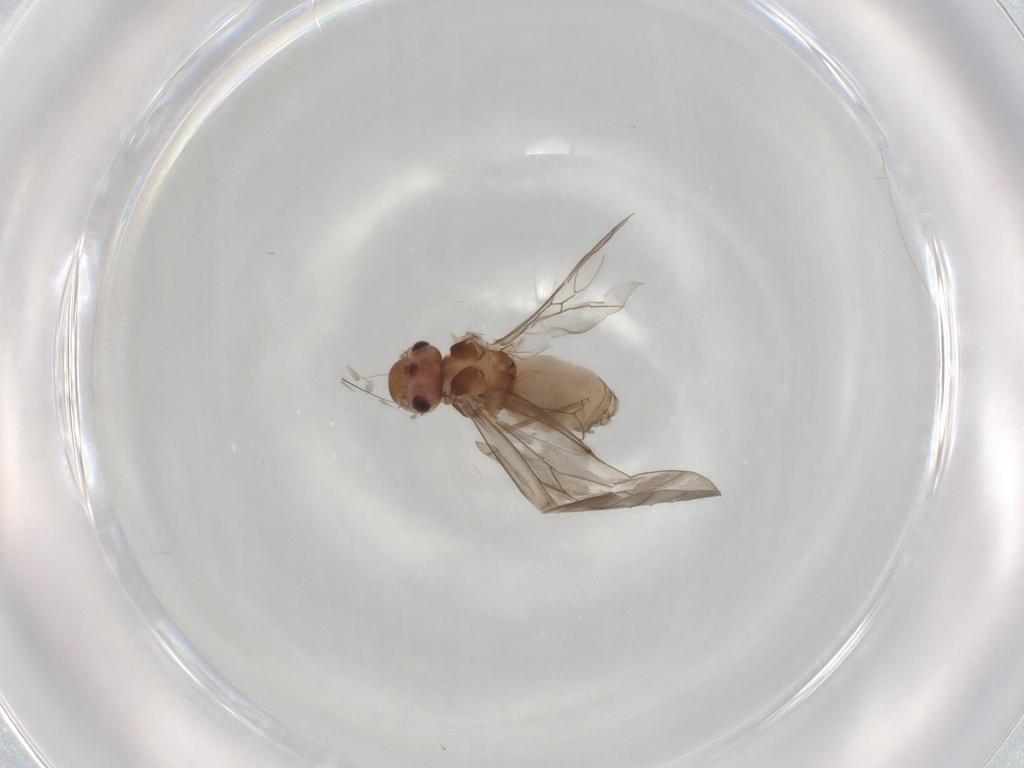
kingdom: Animalia
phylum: Arthropoda
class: Insecta
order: Psocodea
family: Peripsocidae
